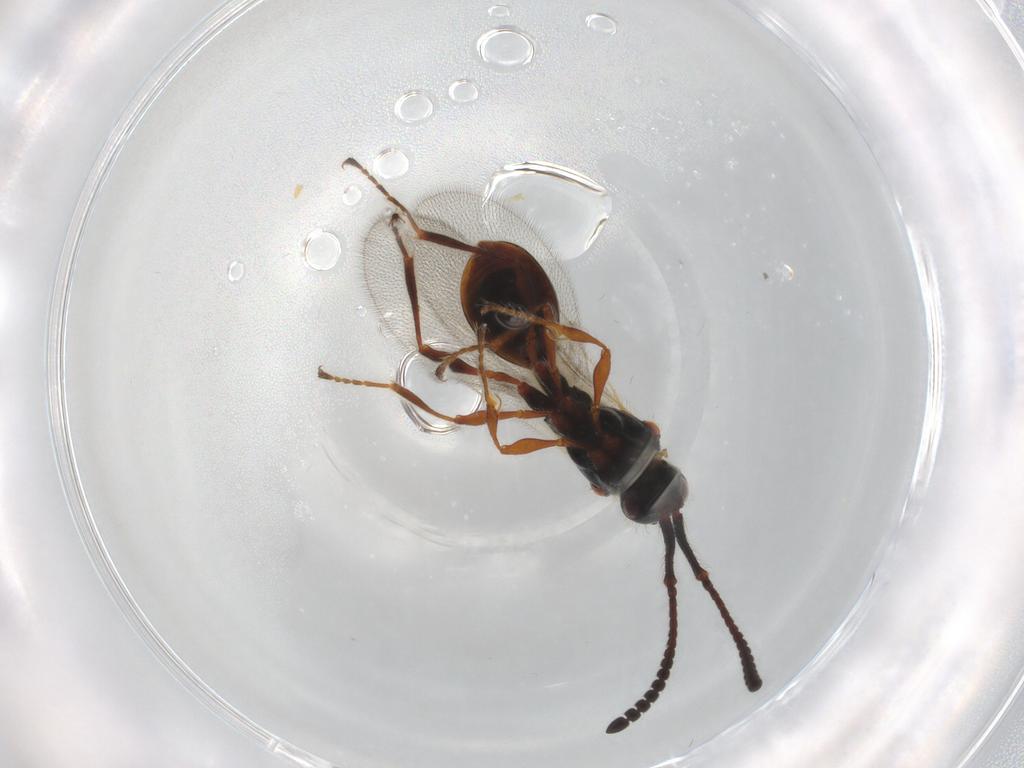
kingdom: Animalia
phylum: Arthropoda
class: Insecta
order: Hymenoptera
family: Diapriidae
